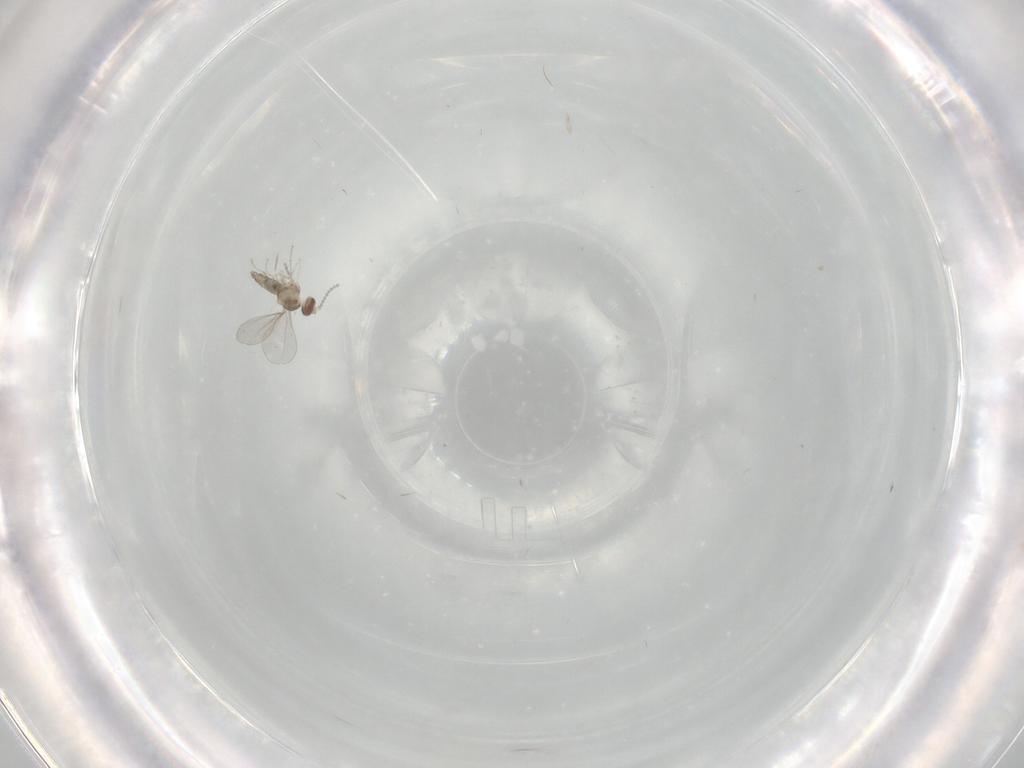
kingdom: Animalia
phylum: Arthropoda
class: Insecta
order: Diptera
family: Cecidomyiidae
